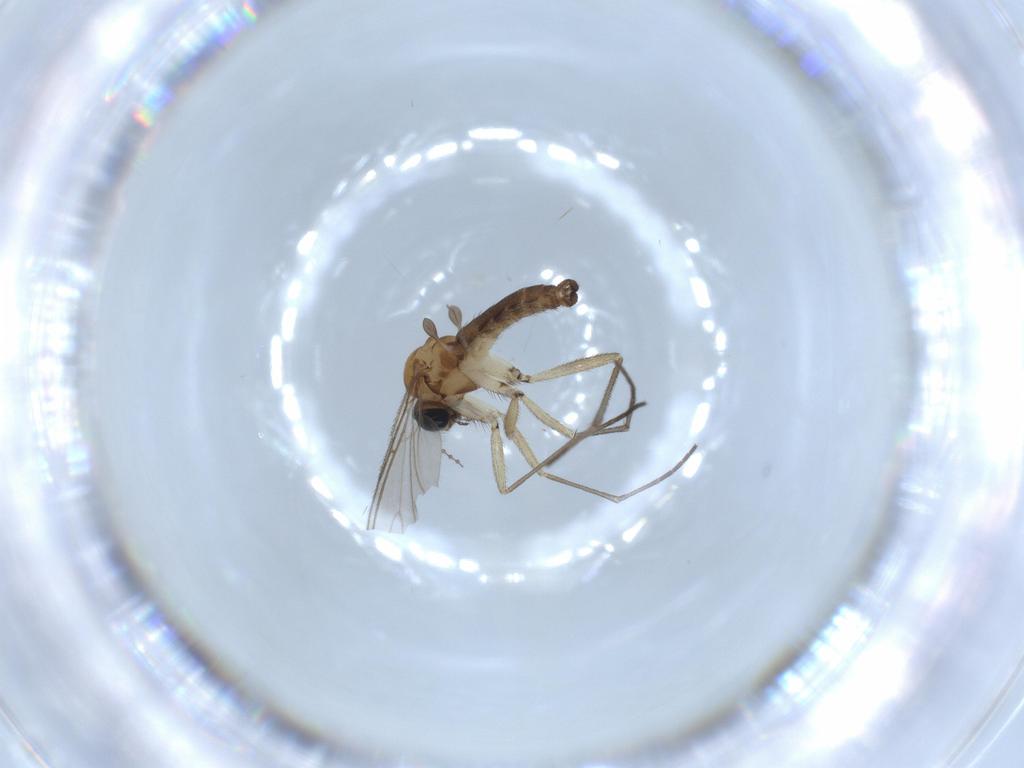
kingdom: Animalia
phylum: Arthropoda
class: Insecta
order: Diptera
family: Sciaridae
